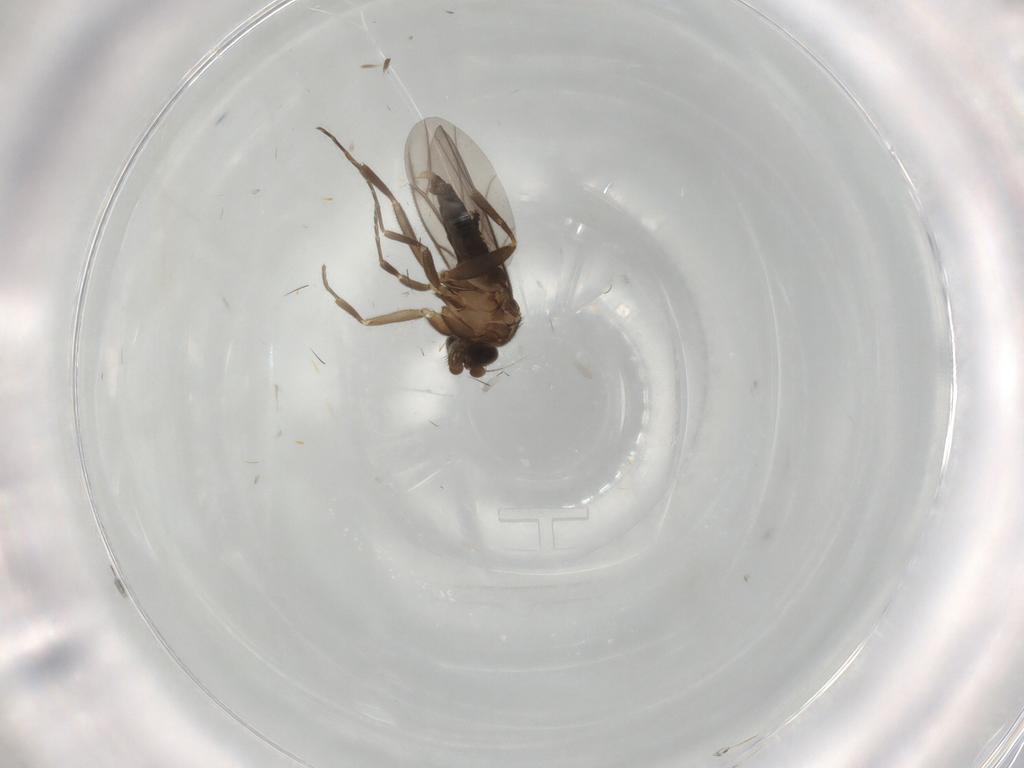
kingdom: Animalia
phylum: Arthropoda
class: Insecta
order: Diptera
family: Chironomidae
